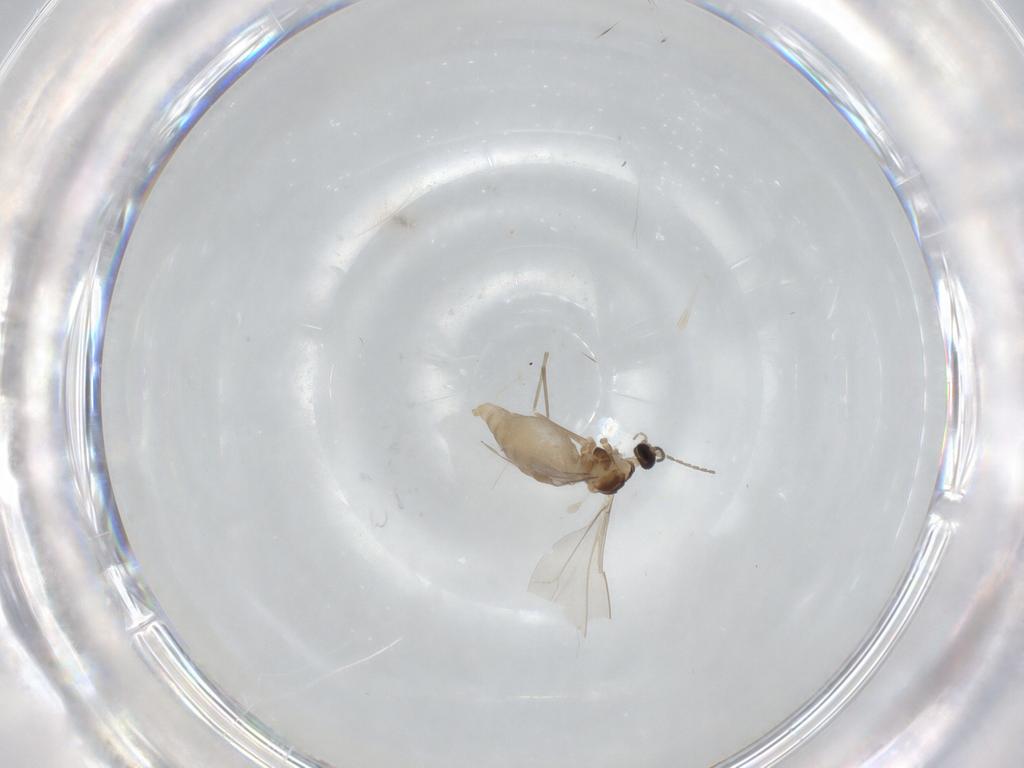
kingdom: Animalia
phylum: Arthropoda
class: Insecta
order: Diptera
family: Cecidomyiidae
